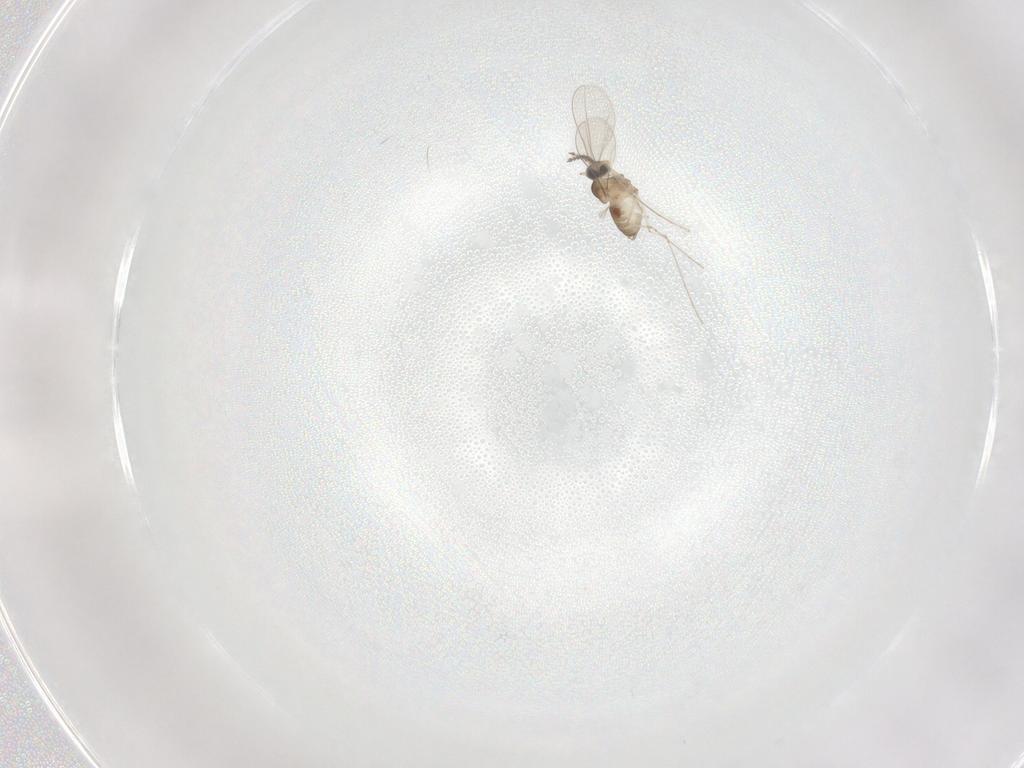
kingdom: Animalia
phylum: Arthropoda
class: Insecta
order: Diptera
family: Cecidomyiidae
